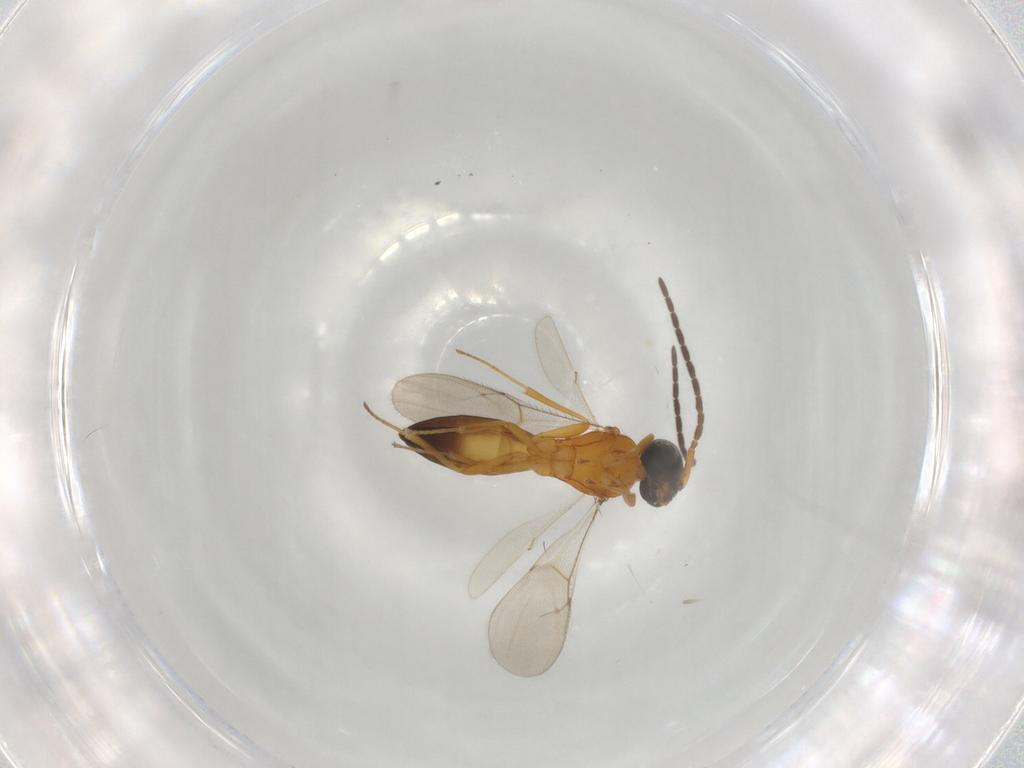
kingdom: Animalia
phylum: Arthropoda
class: Insecta
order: Hymenoptera
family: Scelionidae
